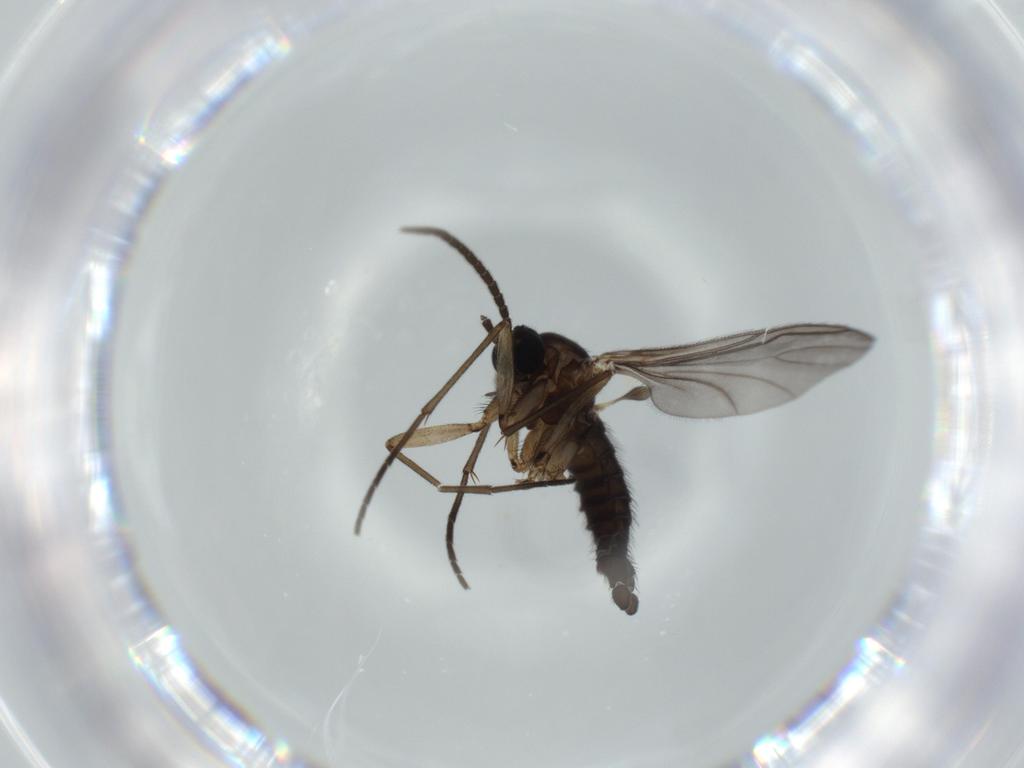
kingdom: Animalia
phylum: Arthropoda
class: Insecta
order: Diptera
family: Sciaridae
